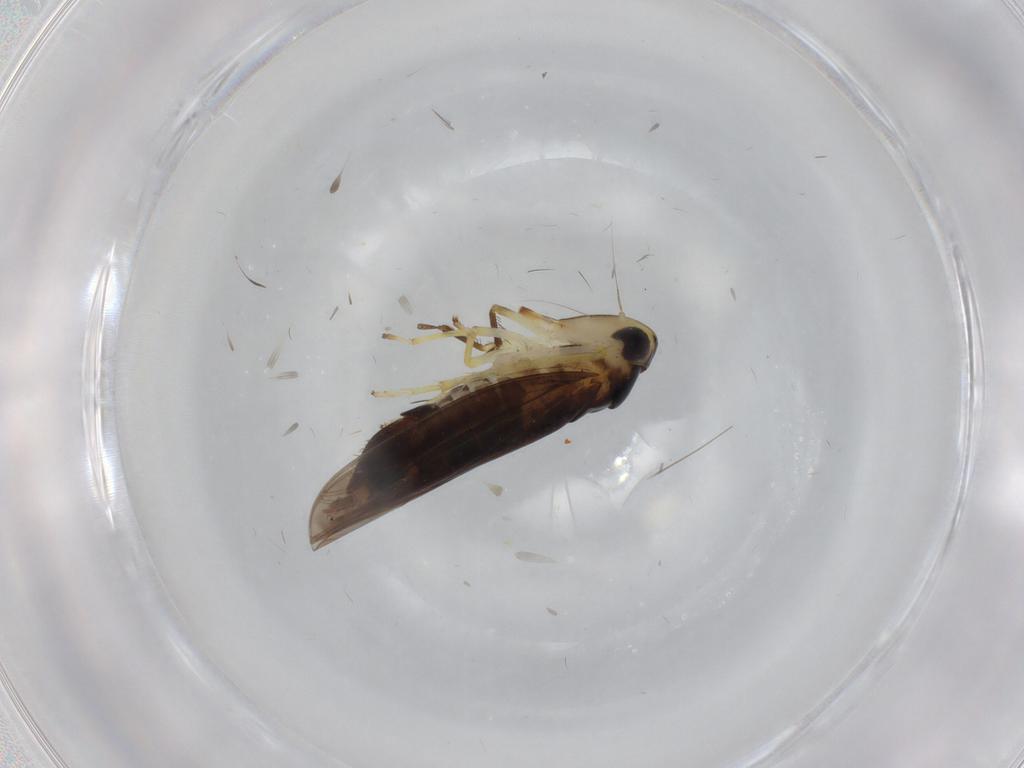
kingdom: Animalia
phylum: Arthropoda
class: Insecta
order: Hemiptera
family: Cicadellidae
